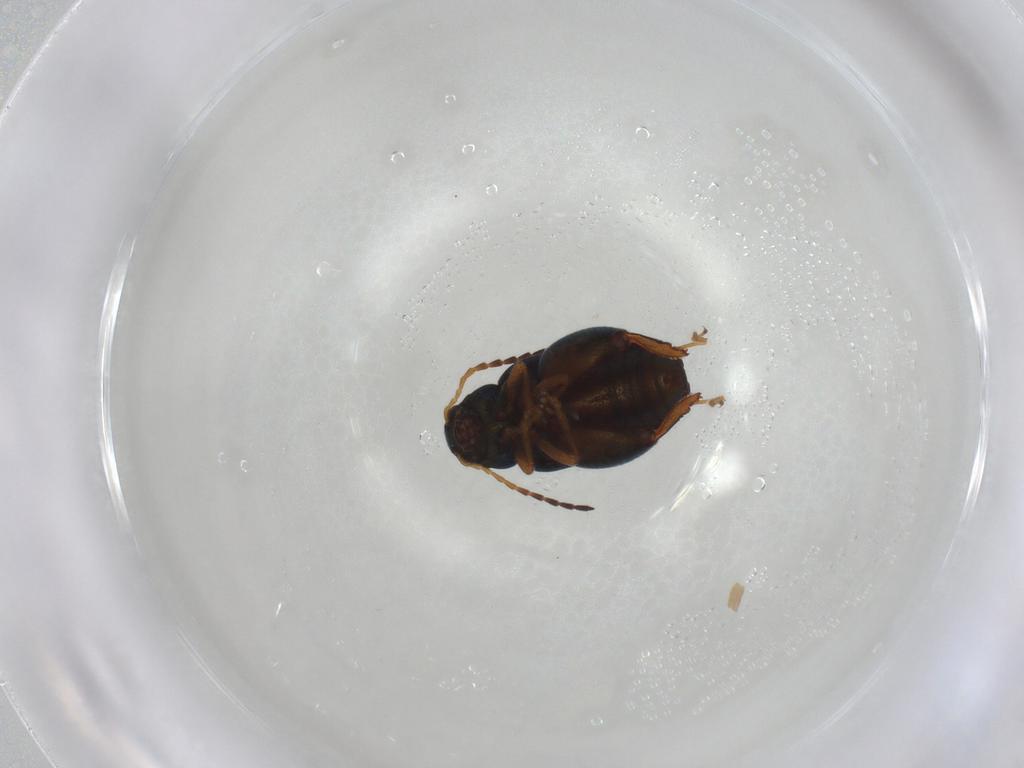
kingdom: Animalia
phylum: Arthropoda
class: Insecta
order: Coleoptera
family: Chrysomelidae
